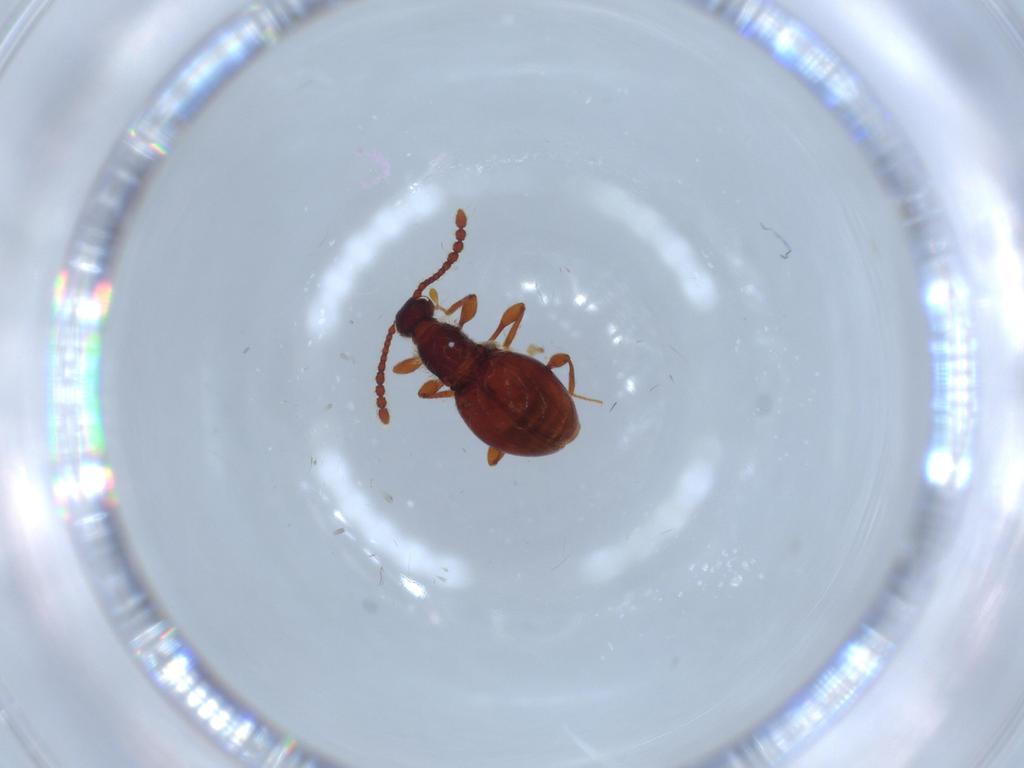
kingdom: Animalia
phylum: Arthropoda
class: Insecta
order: Coleoptera
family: Staphylinidae
